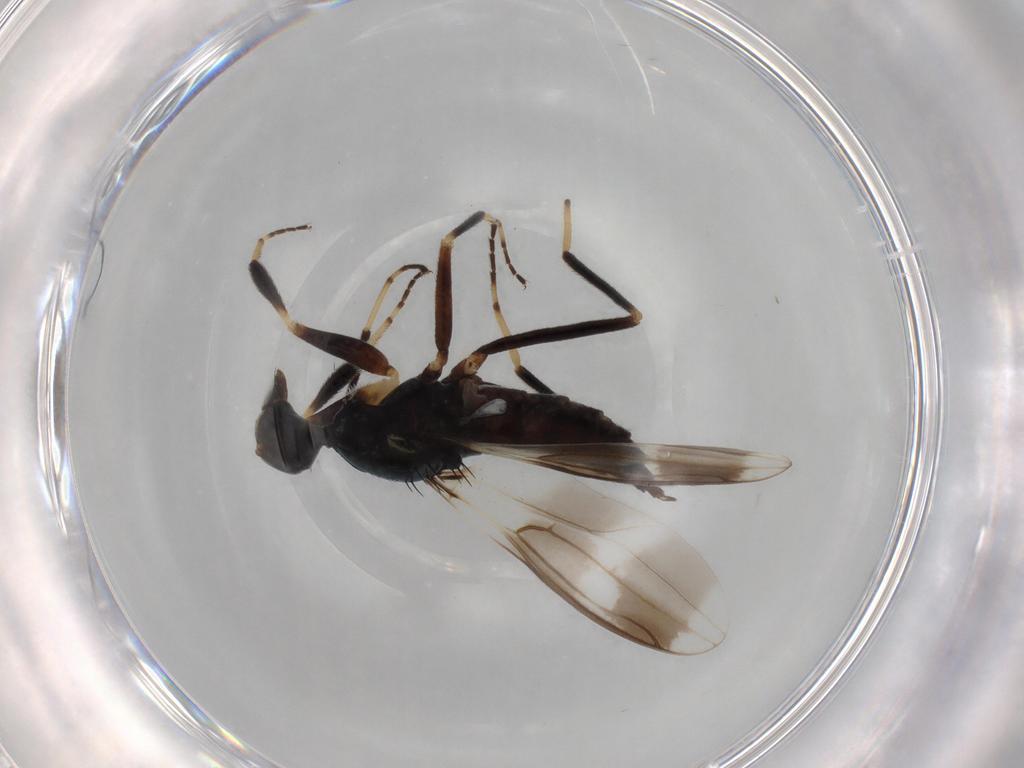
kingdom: Animalia
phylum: Arthropoda
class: Insecta
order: Diptera
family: Hybotidae
